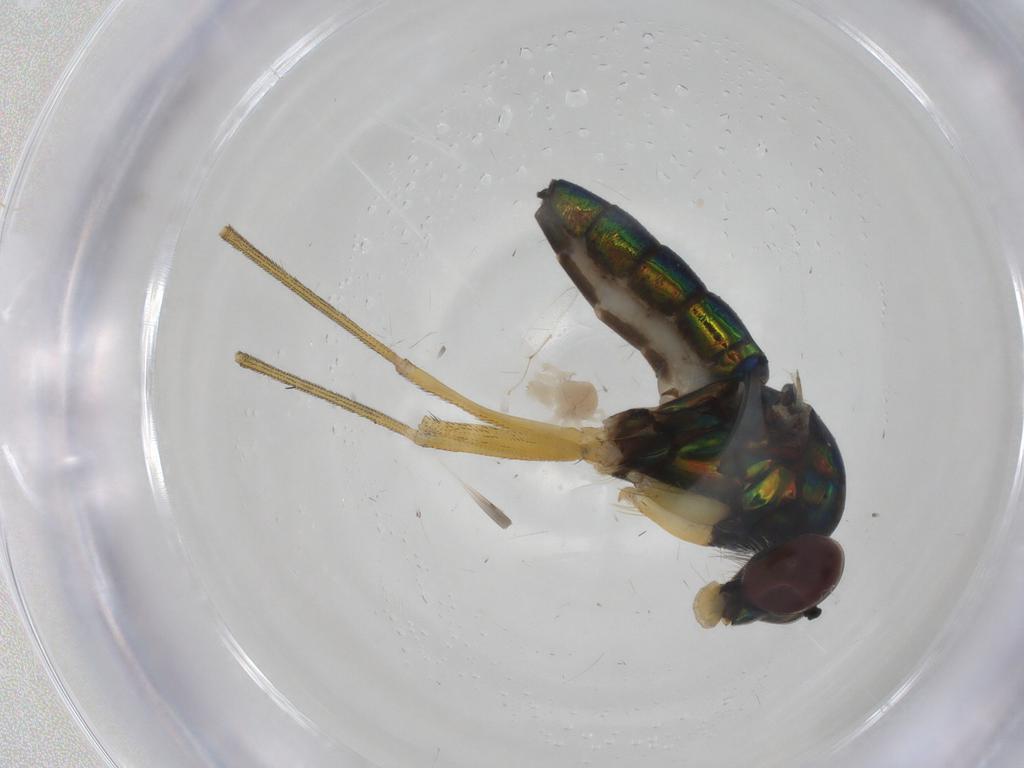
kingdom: Animalia
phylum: Arthropoda
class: Insecta
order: Diptera
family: Dolichopodidae
